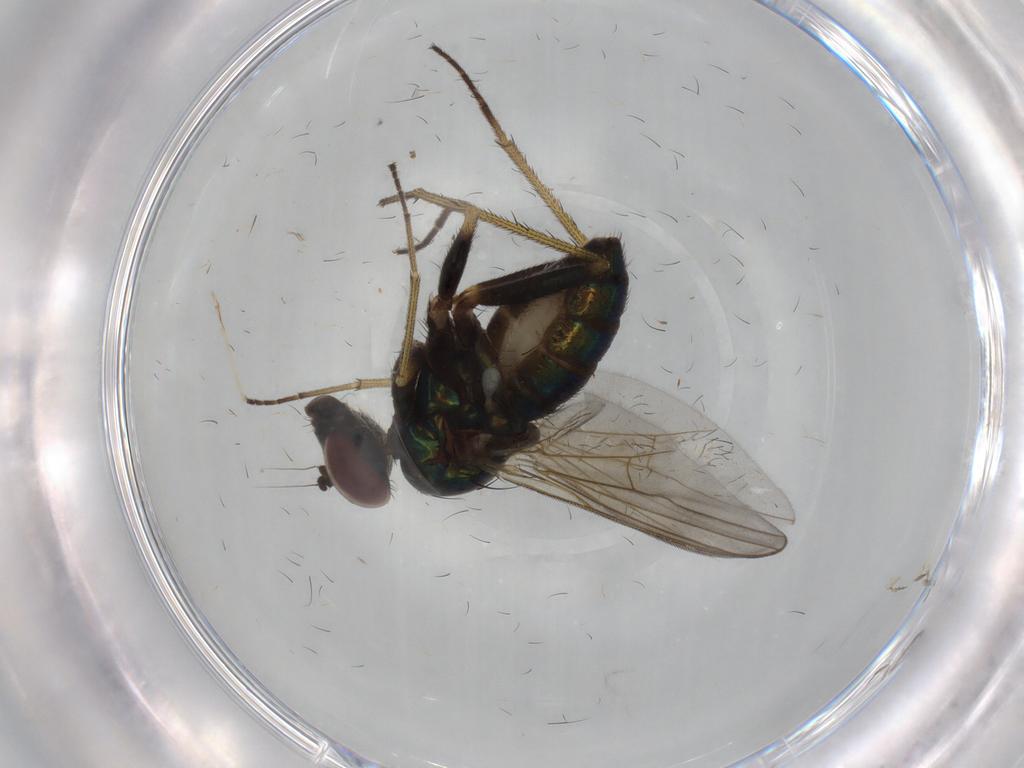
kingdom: Animalia
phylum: Arthropoda
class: Insecta
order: Diptera
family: Dolichopodidae
